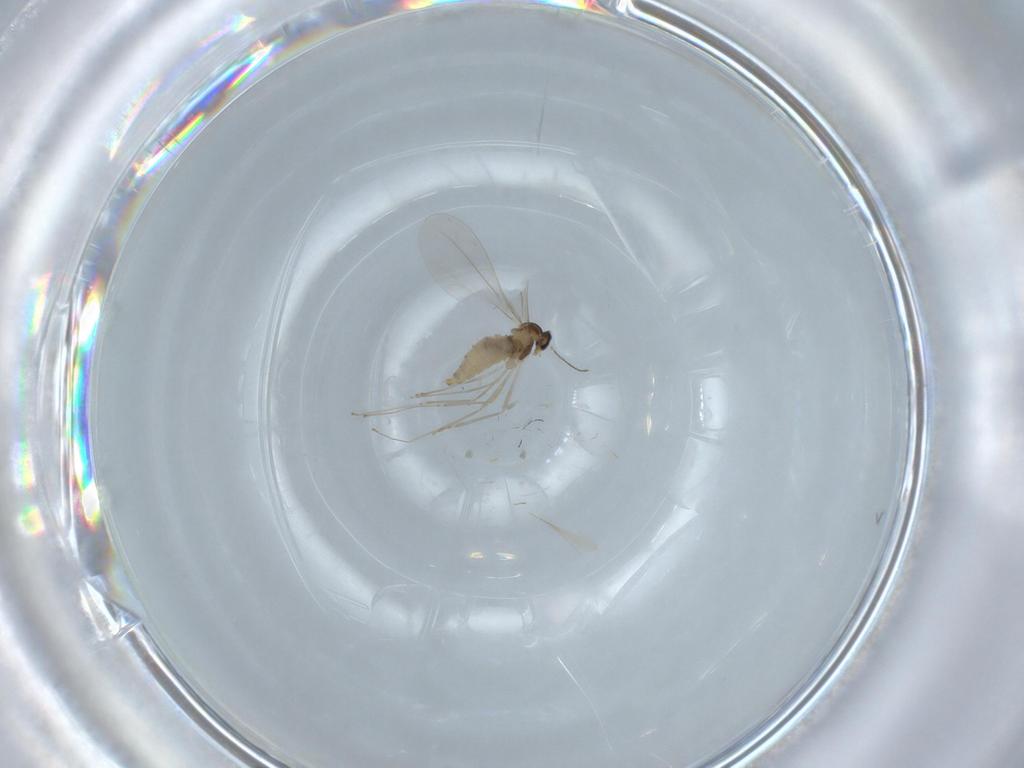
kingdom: Animalia
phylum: Arthropoda
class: Insecta
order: Diptera
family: Cecidomyiidae
